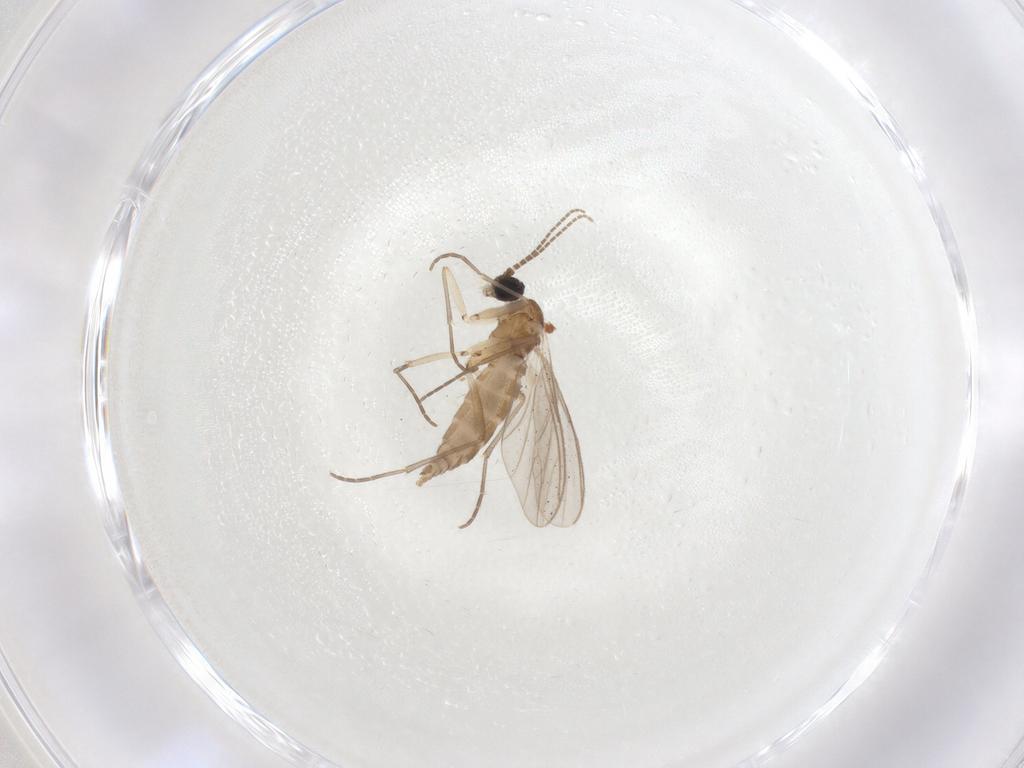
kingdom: Animalia
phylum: Arthropoda
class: Insecta
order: Diptera
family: Sciaridae
